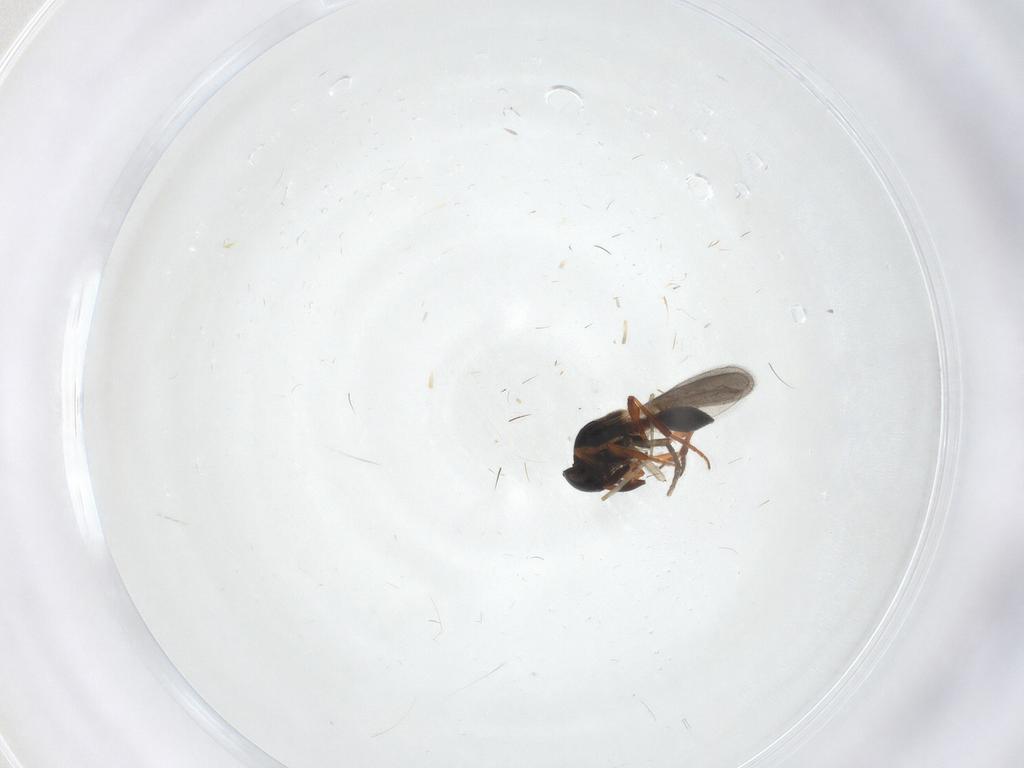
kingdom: Animalia
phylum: Arthropoda
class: Insecta
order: Hymenoptera
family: Platygastridae
